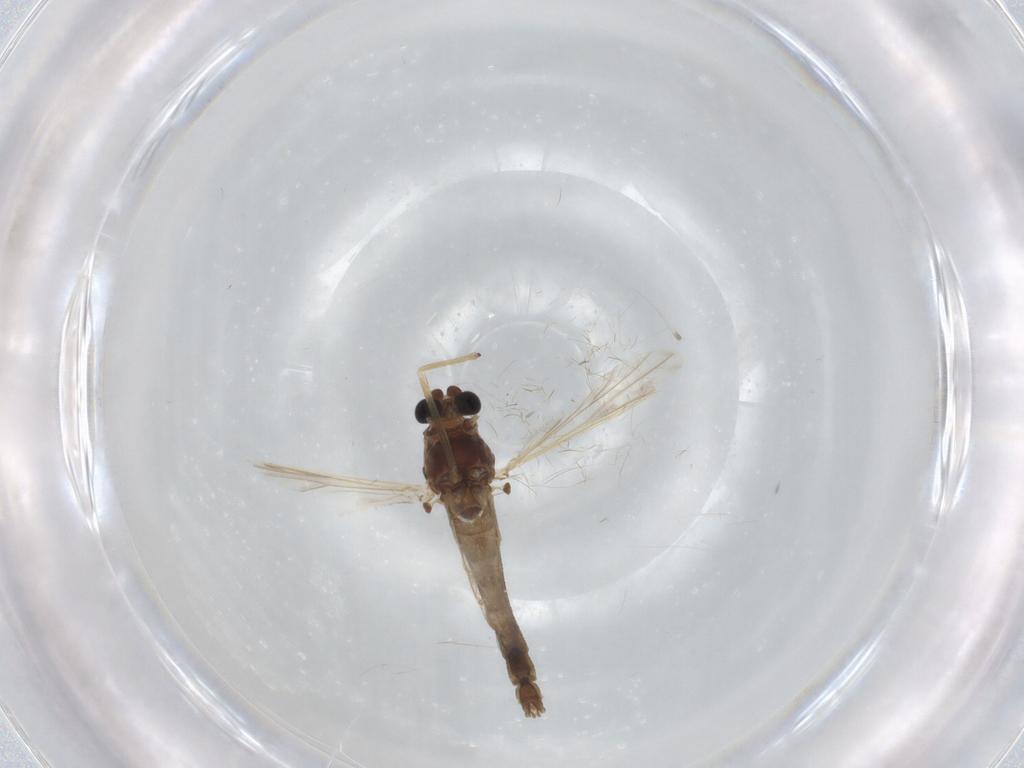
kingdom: Animalia
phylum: Arthropoda
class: Insecta
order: Diptera
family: Chironomidae
